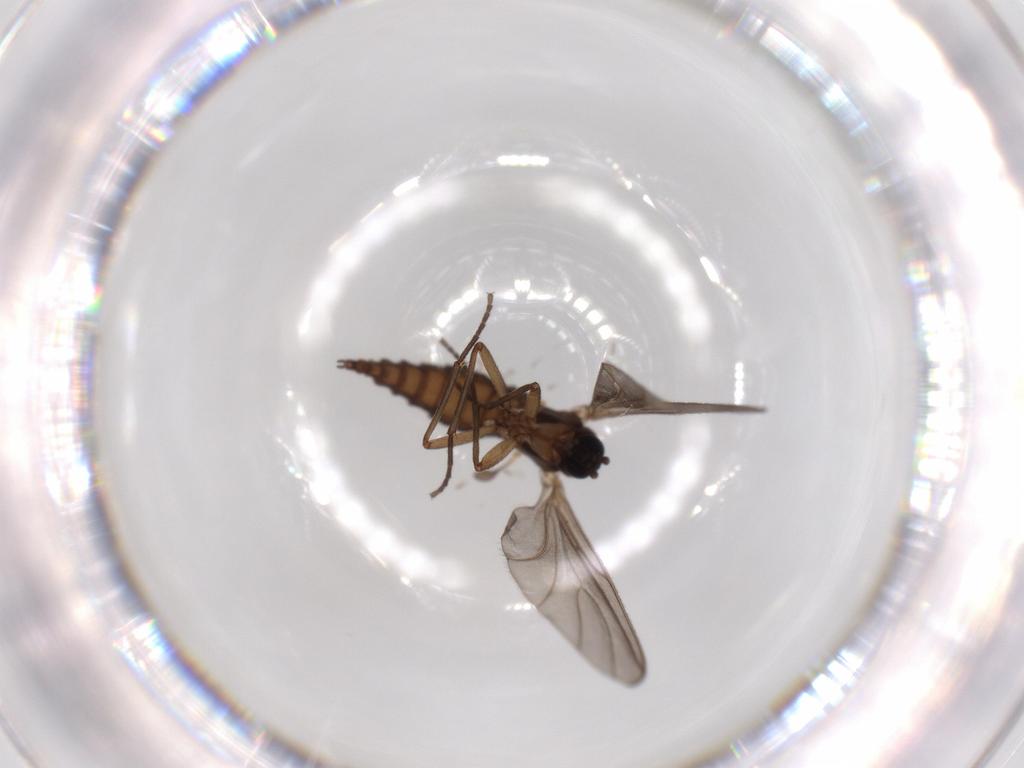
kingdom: Animalia
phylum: Arthropoda
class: Insecta
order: Diptera
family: Sciaridae
